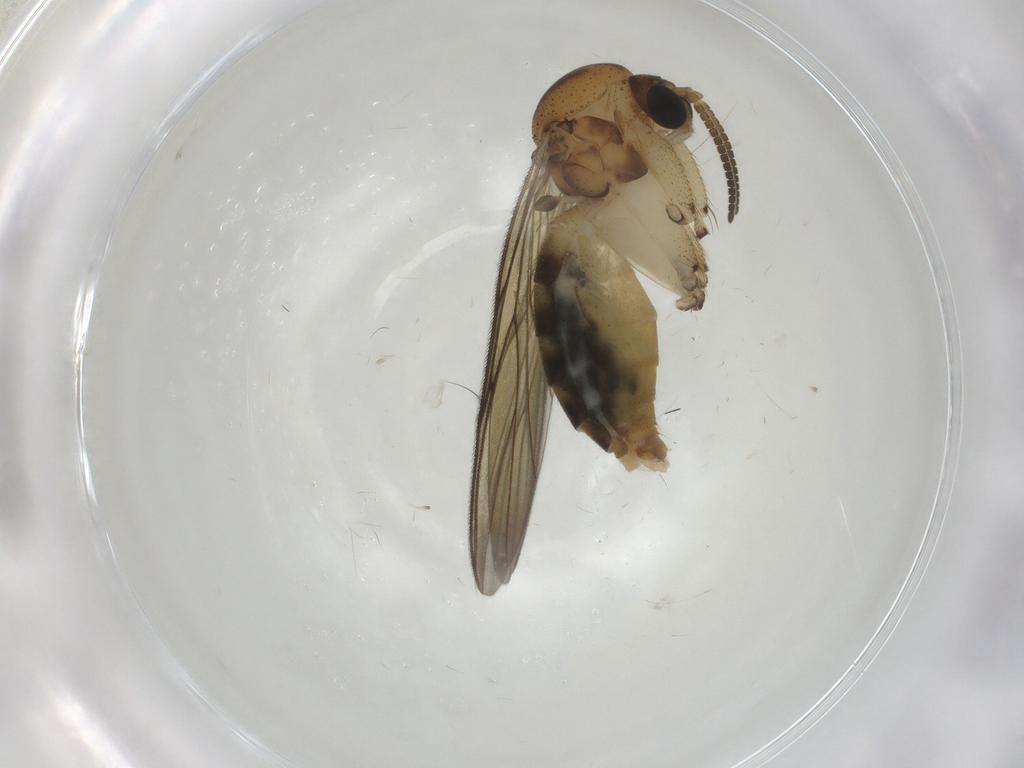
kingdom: Animalia
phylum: Arthropoda
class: Insecta
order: Diptera
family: Mycetophilidae
